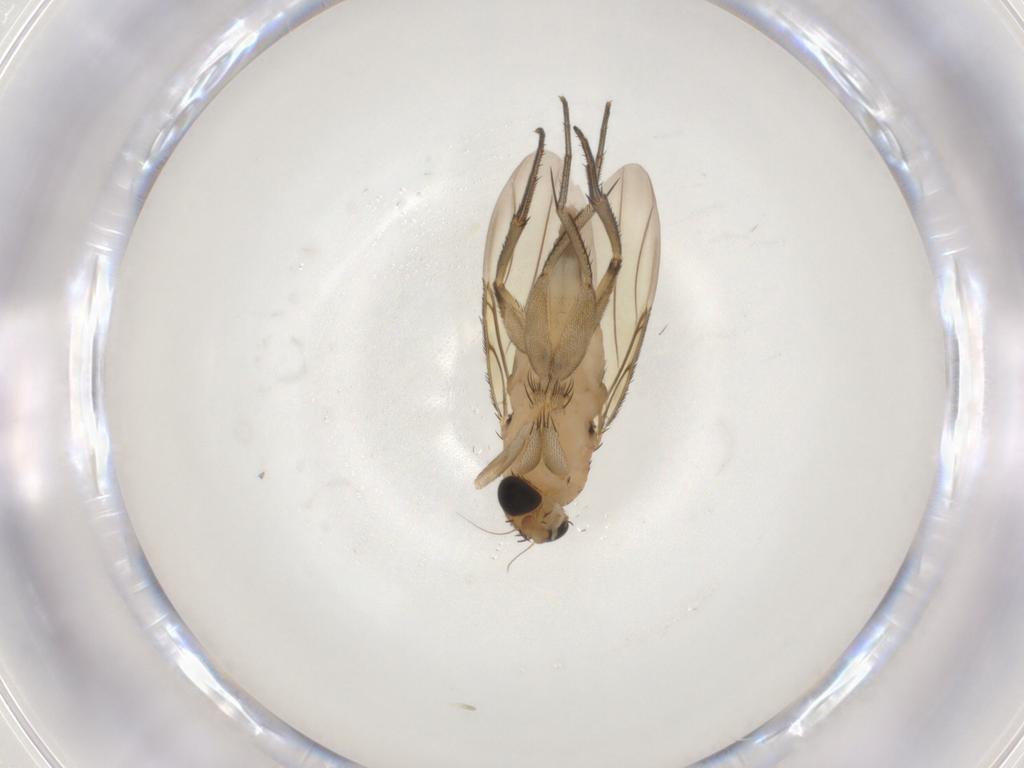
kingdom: Animalia
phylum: Arthropoda
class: Insecta
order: Diptera
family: Phoridae
